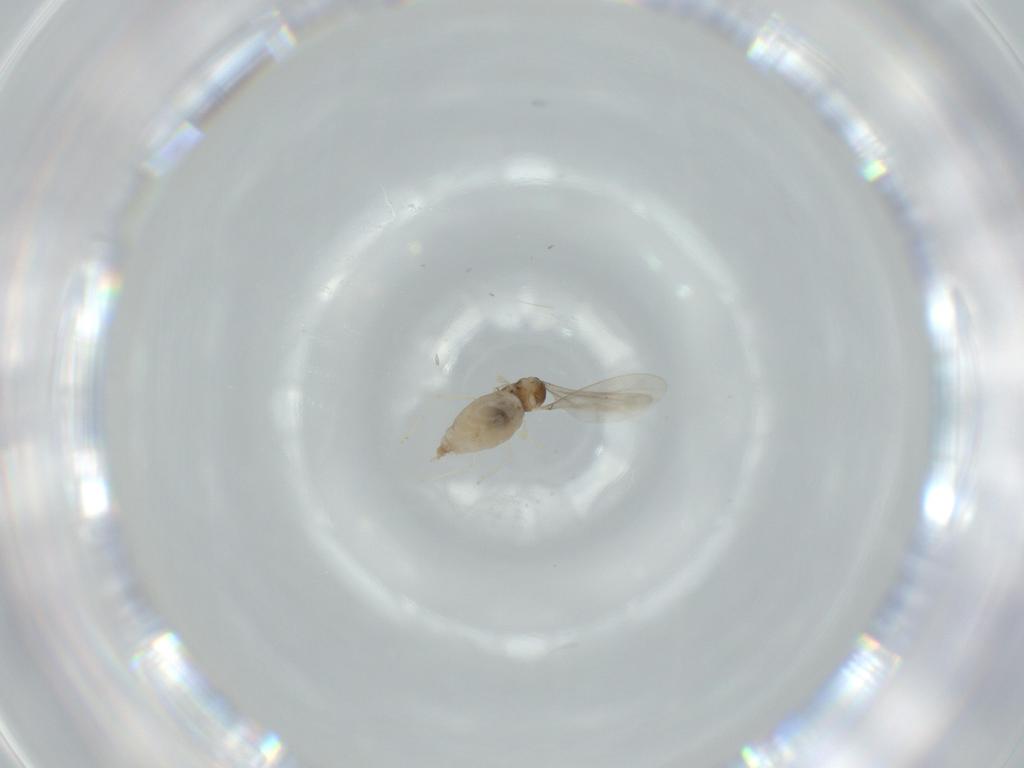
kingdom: Animalia
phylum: Arthropoda
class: Insecta
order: Diptera
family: Cecidomyiidae
